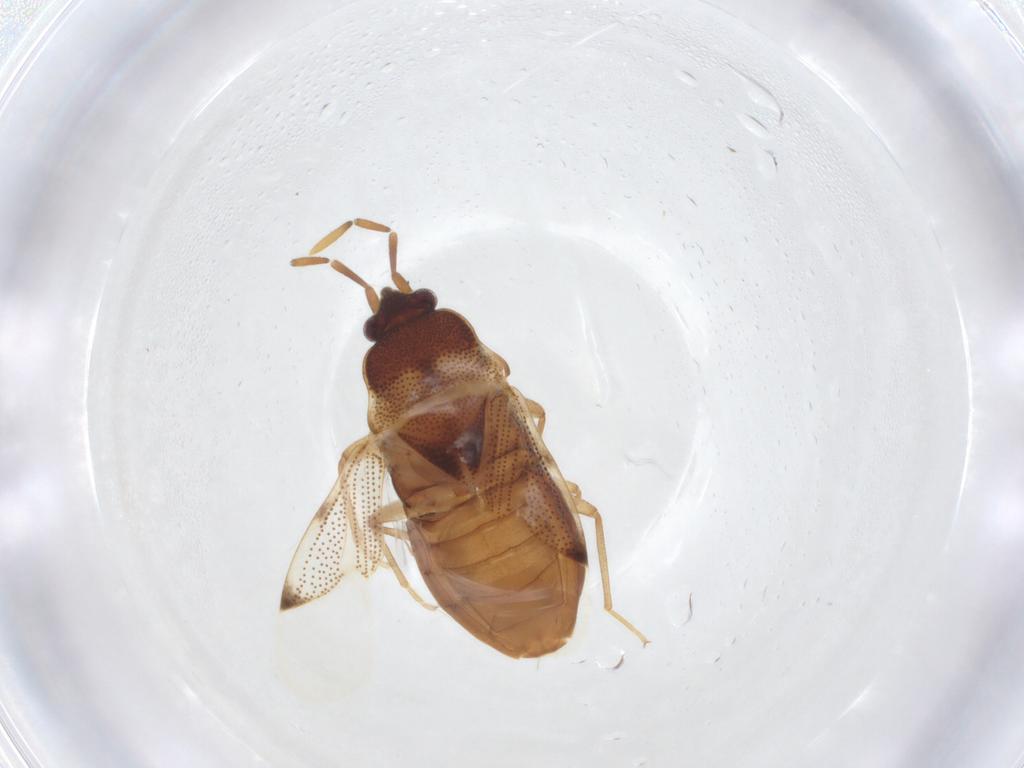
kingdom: Animalia
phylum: Arthropoda
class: Insecta
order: Hemiptera
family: Rhyparochromidae
